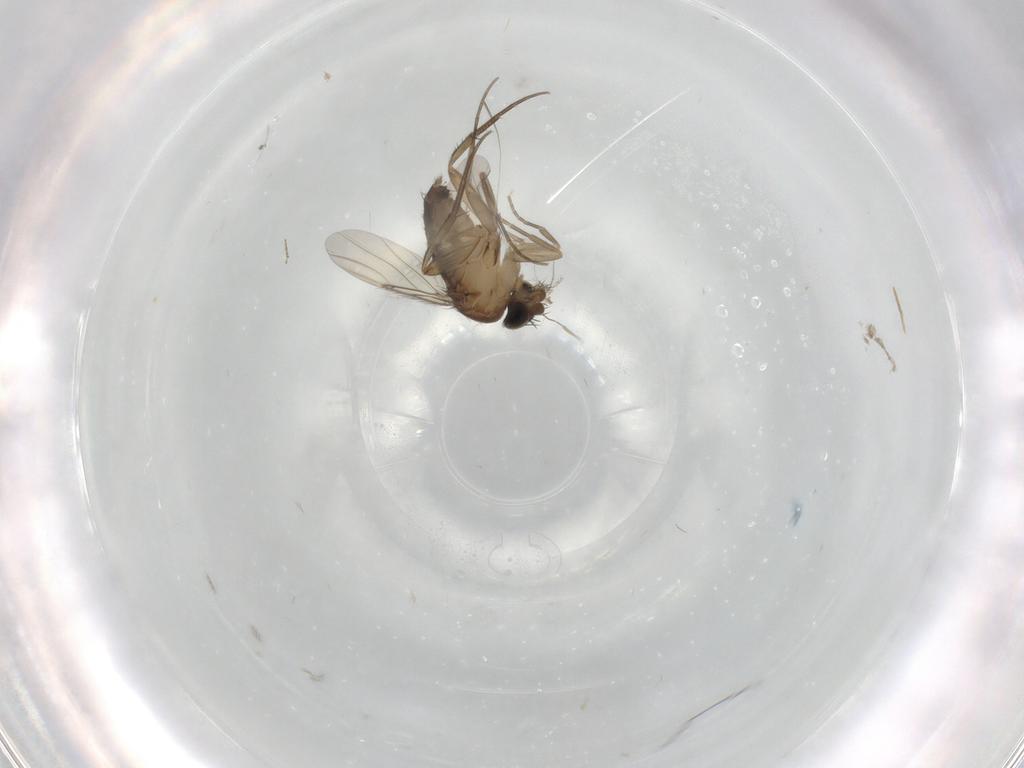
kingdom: Animalia
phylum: Arthropoda
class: Insecta
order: Diptera
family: Phoridae
